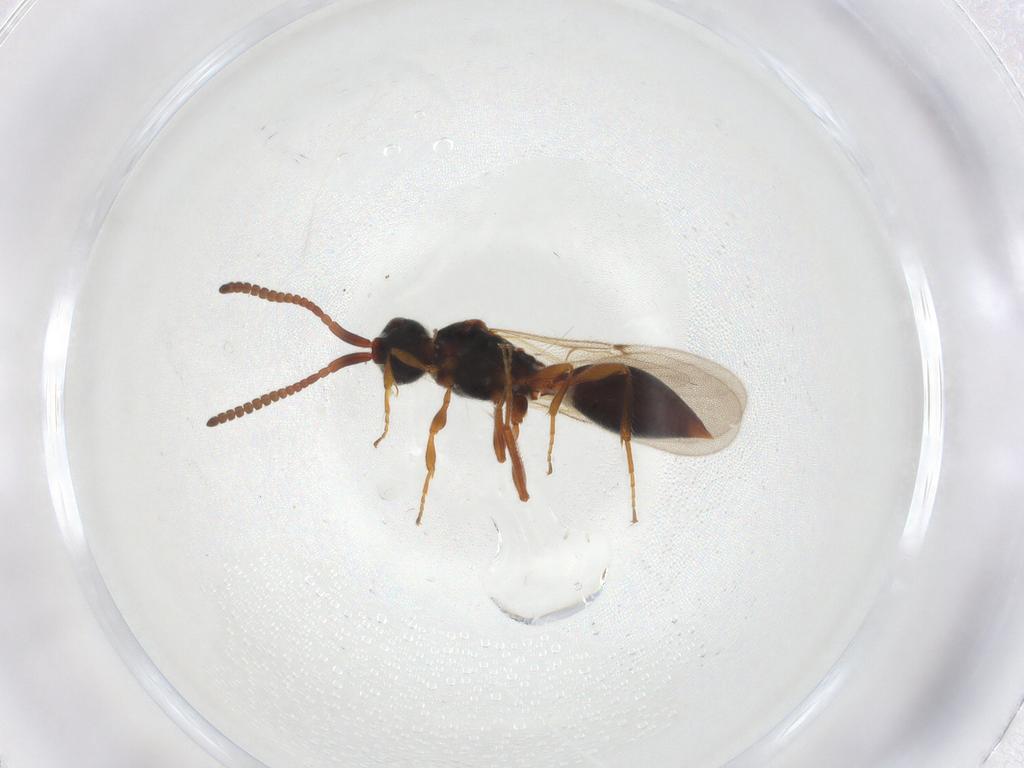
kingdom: Animalia
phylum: Arthropoda
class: Insecta
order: Hymenoptera
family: Diapriidae
